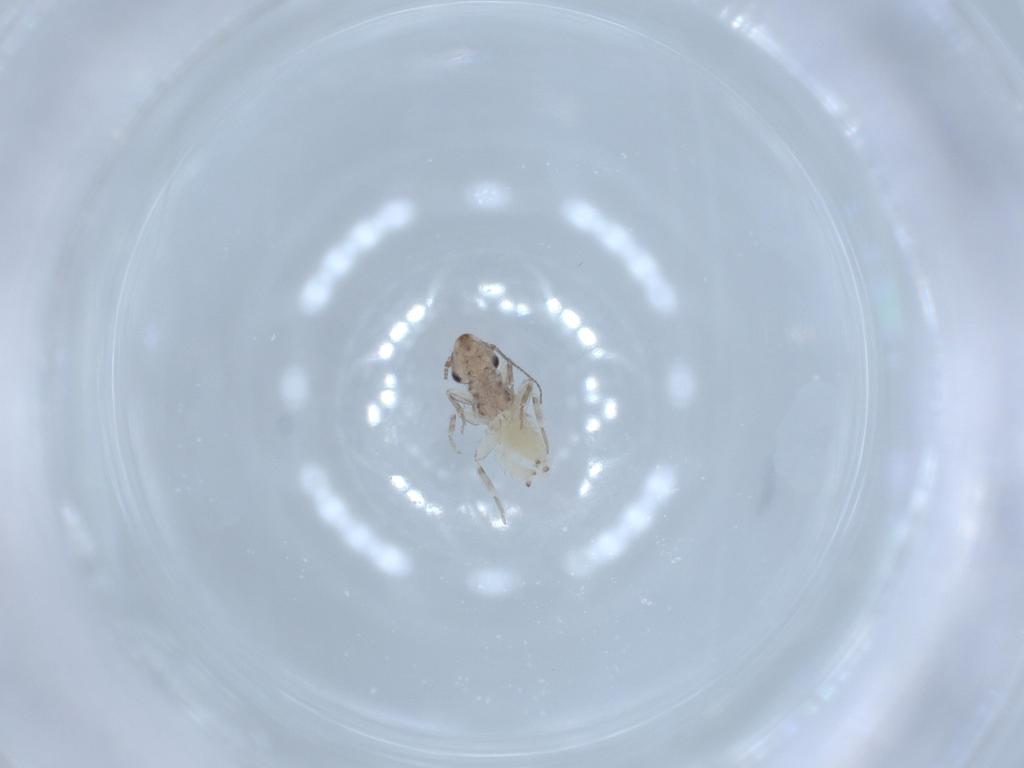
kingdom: Animalia
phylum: Arthropoda
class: Insecta
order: Psocodea
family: Lepidopsocidae
